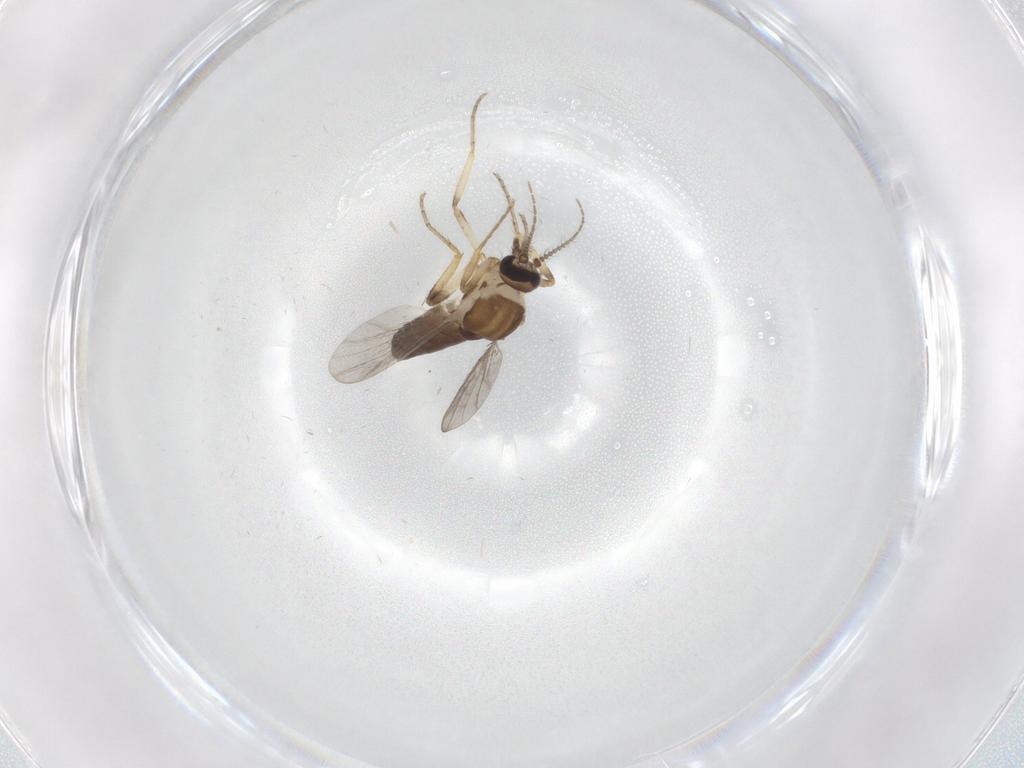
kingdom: Animalia
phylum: Arthropoda
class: Insecta
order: Diptera
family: Ceratopogonidae
